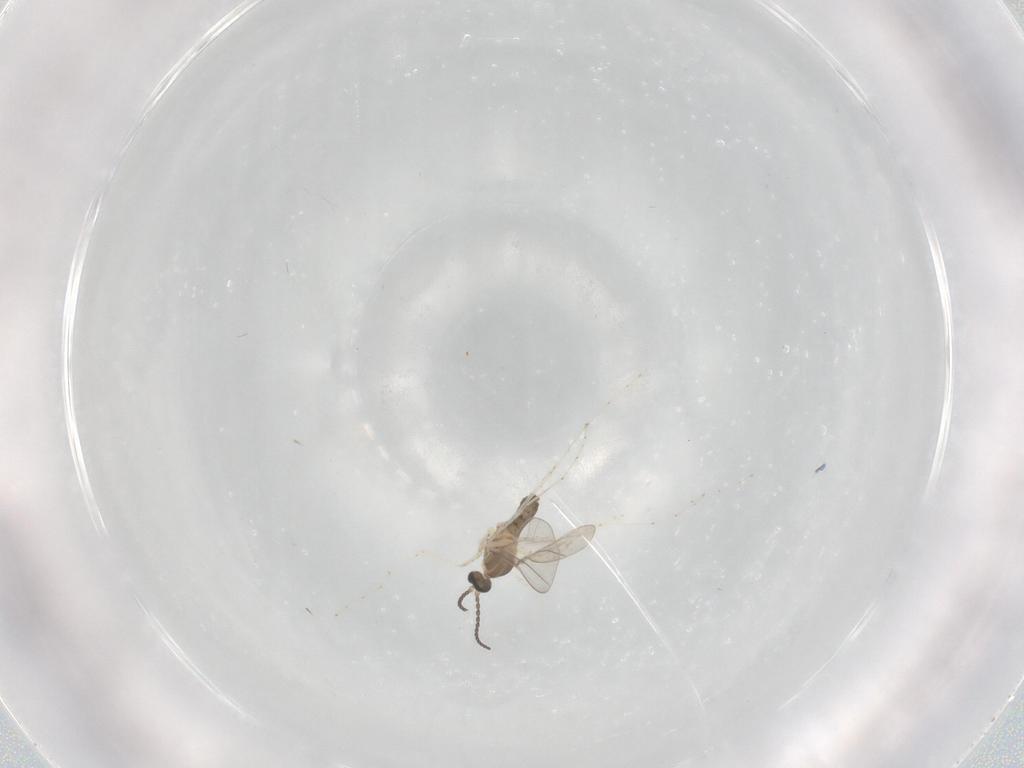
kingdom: Animalia
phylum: Arthropoda
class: Insecta
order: Diptera
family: Cecidomyiidae
